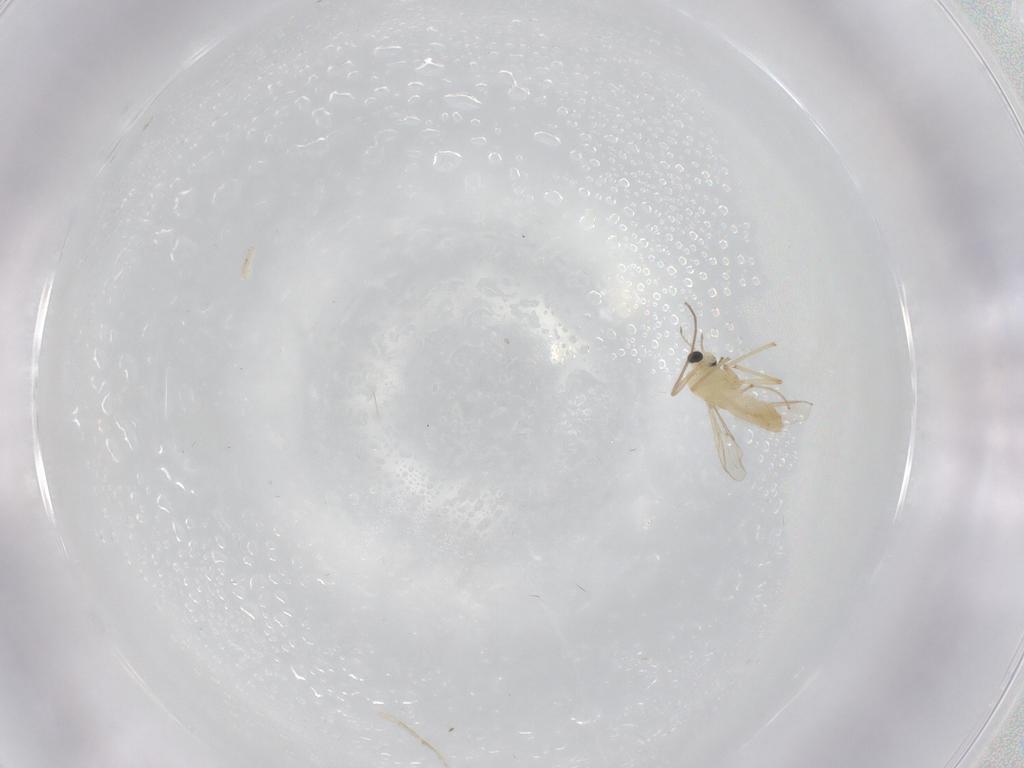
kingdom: Animalia
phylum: Arthropoda
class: Insecta
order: Diptera
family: Chironomidae
